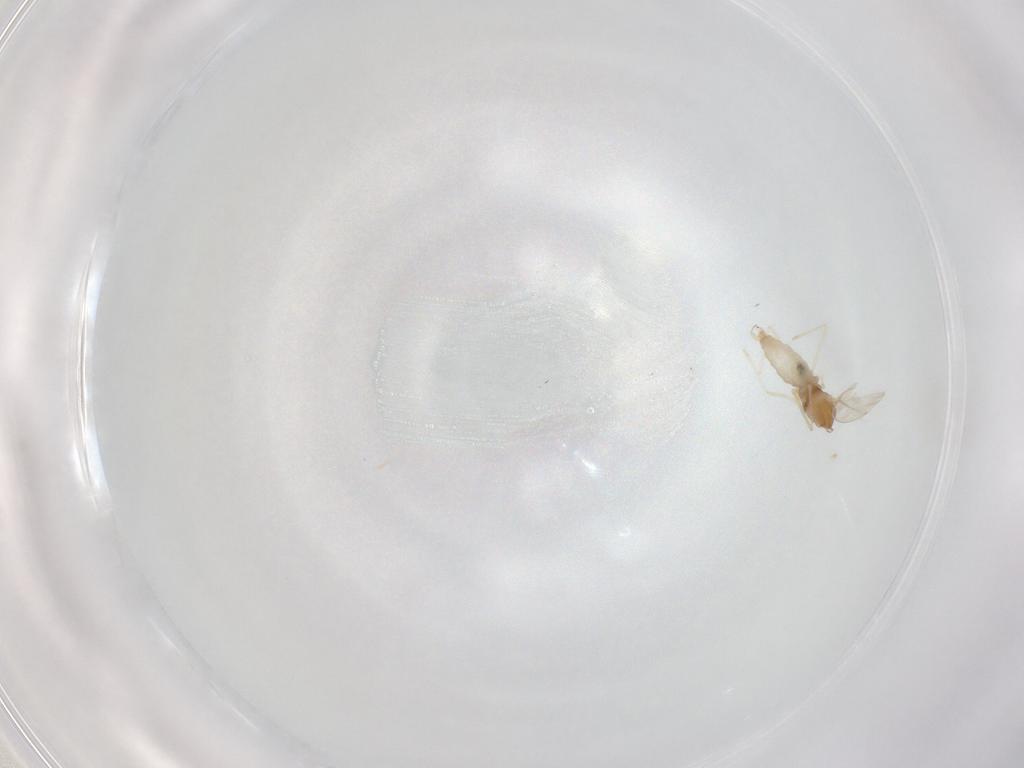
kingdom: Animalia
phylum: Arthropoda
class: Insecta
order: Diptera
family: Cecidomyiidae
